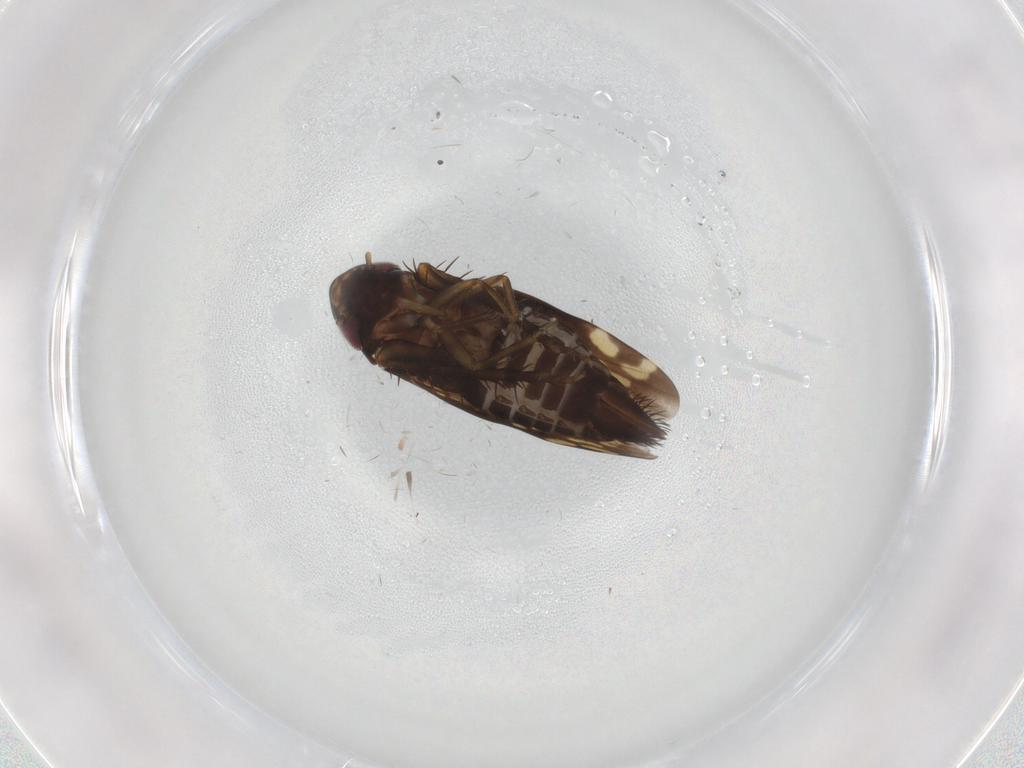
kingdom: Animalia
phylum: Arthropoda
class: Insecta
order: Hemiptera
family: Cicadellidae
